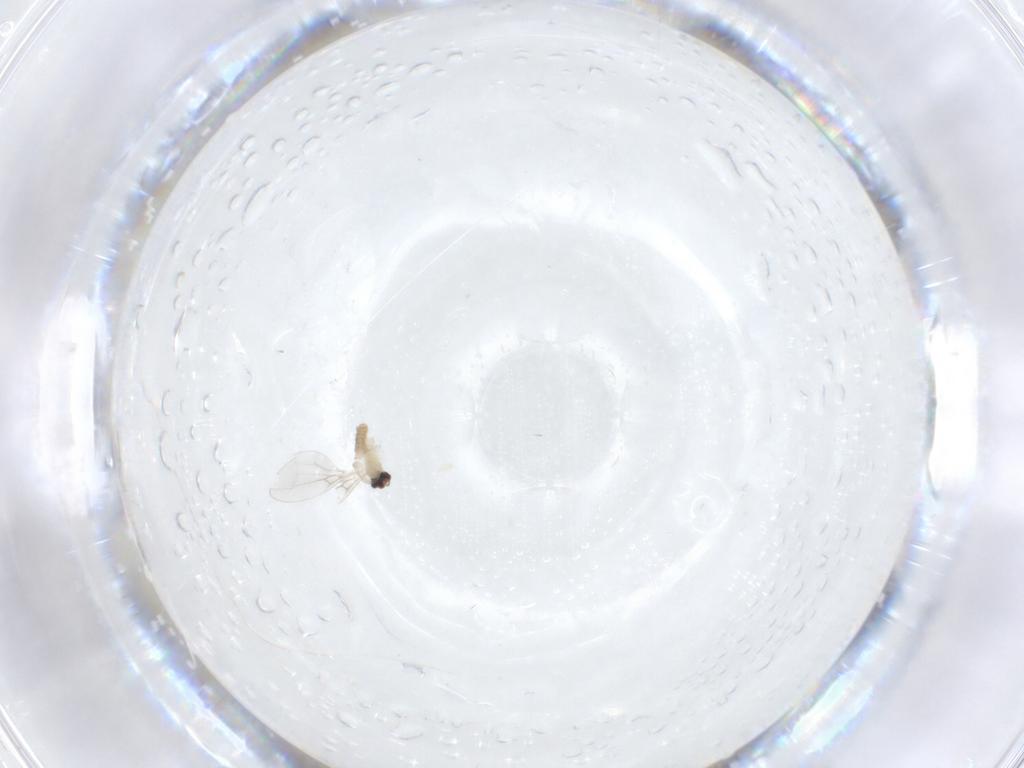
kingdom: Animalia
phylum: Arthropoda
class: Insecta
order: Diptera
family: Cecidomyiidae
